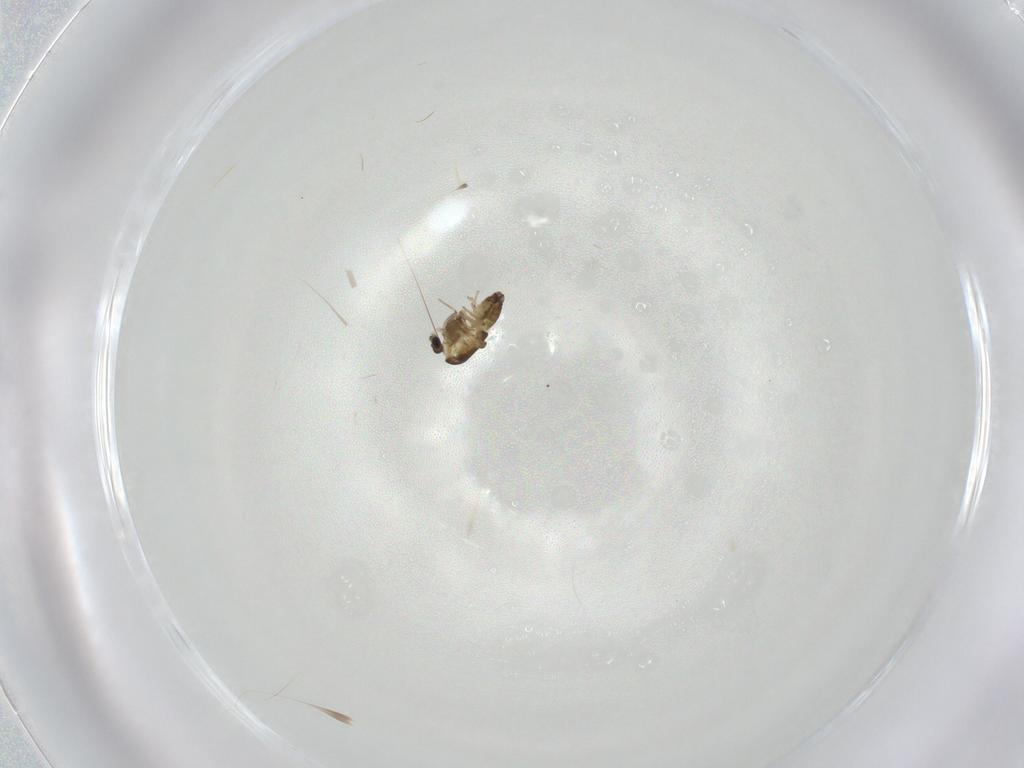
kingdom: Animalia
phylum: Arthropoda
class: Insecta
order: Diptera
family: Chironomidae
